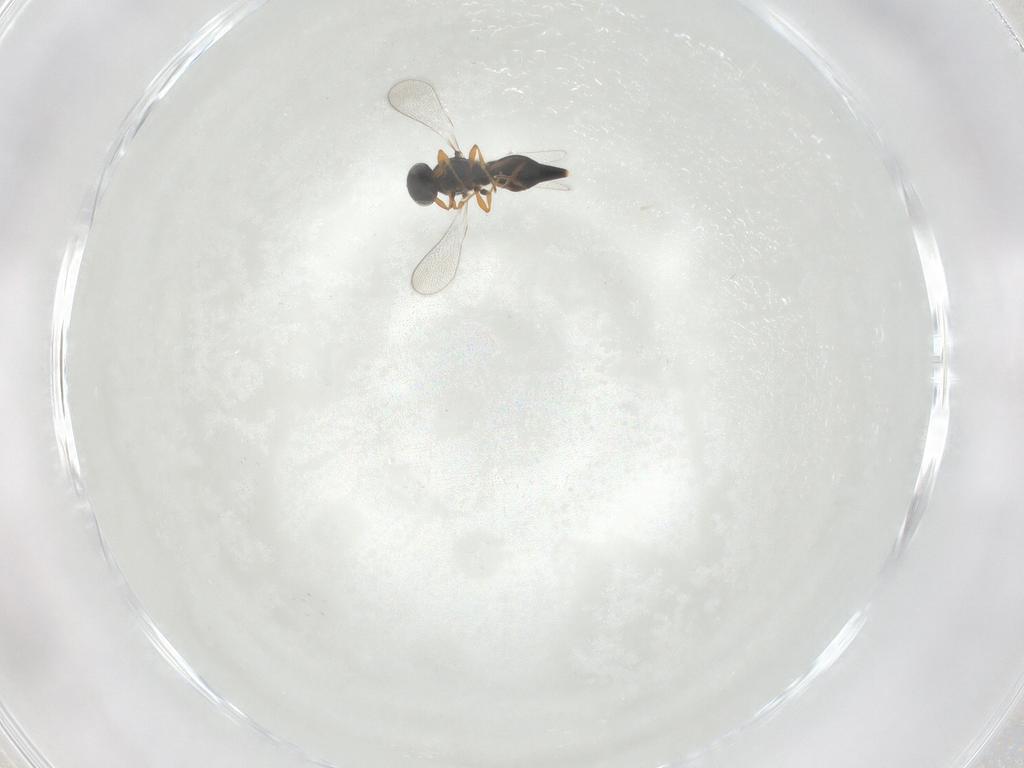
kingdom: Animalia
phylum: Arthropoda
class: Insecta
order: Hymenoptera
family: Platygastridae
